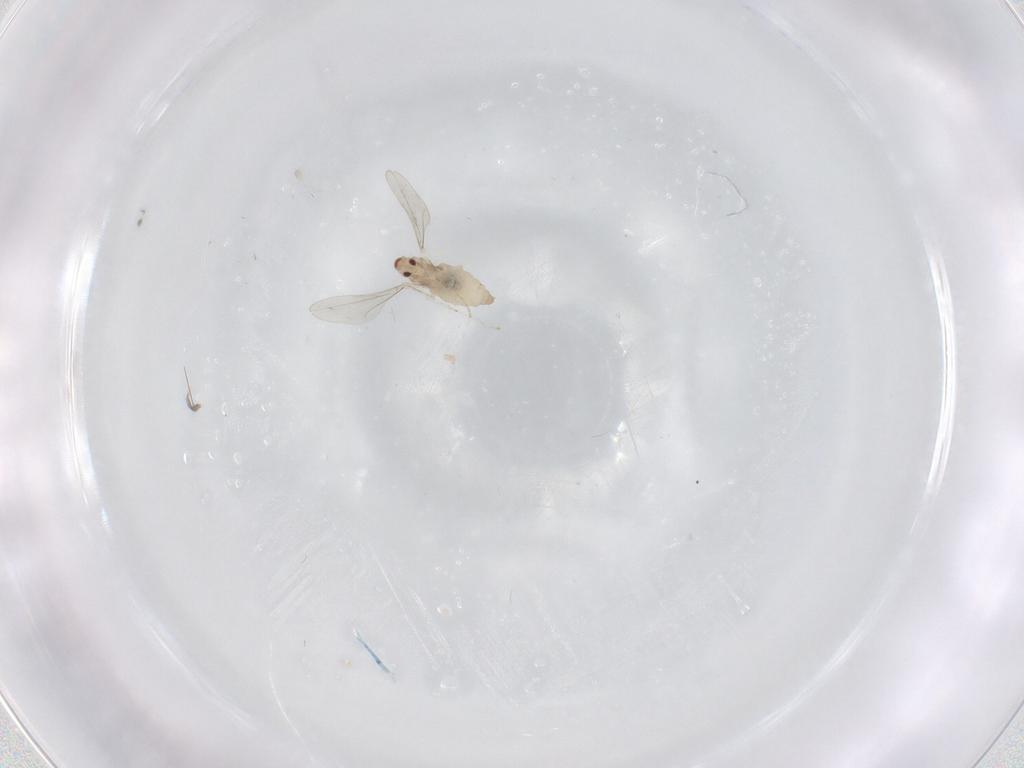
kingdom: Animalia
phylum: Arthropoda
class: Insecta
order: Diptera
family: Cecidomyiidae
